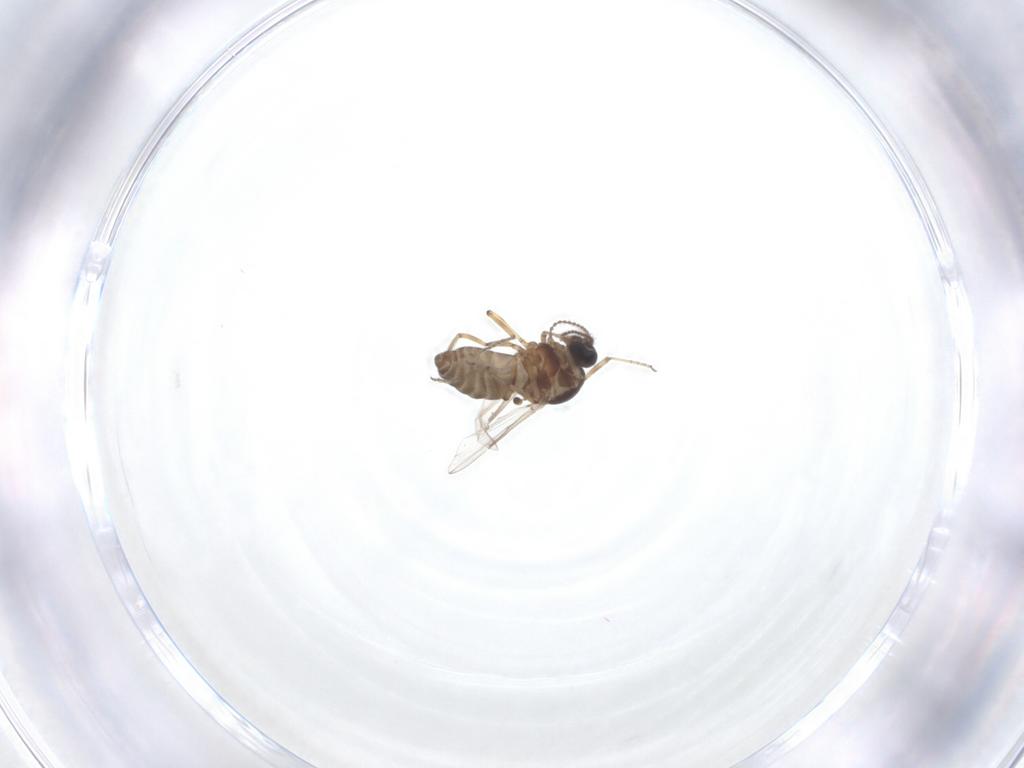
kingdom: Animalia
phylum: Arthropoda
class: Insecta
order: Diptera
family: Ceratopogonidae
